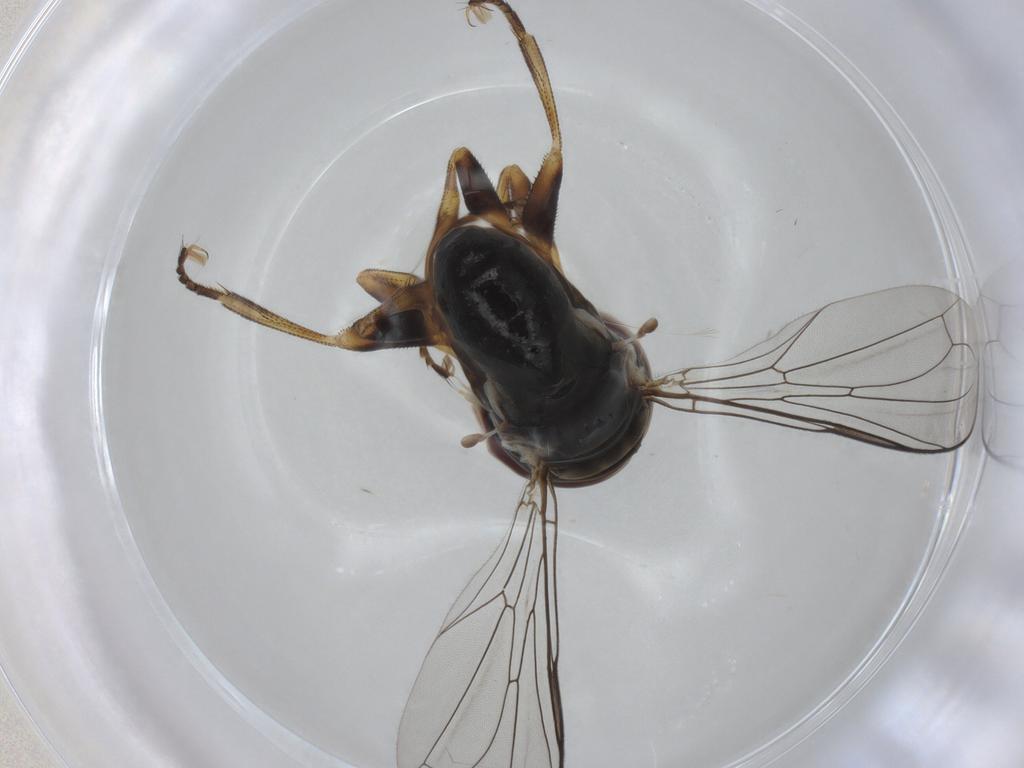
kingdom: Animalia
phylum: Arthropoda
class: Insecta
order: Diptera
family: Pipunculidae
